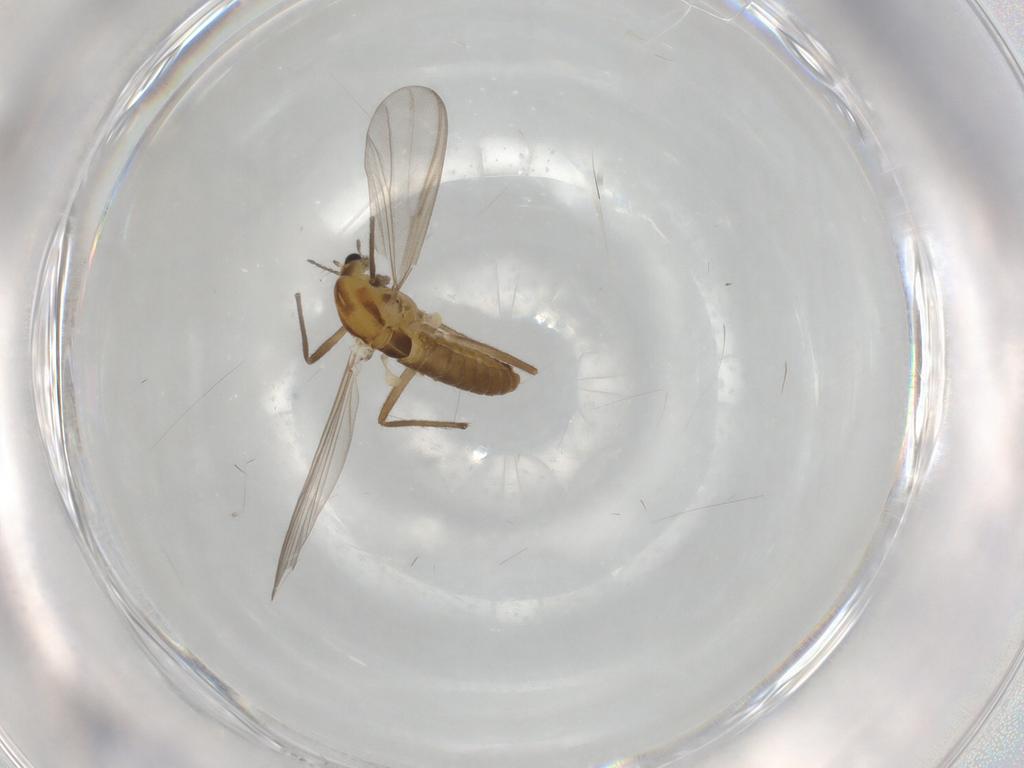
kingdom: Animalia
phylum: Arthropoda
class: Insecta
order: Diptera
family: Chironomidae
